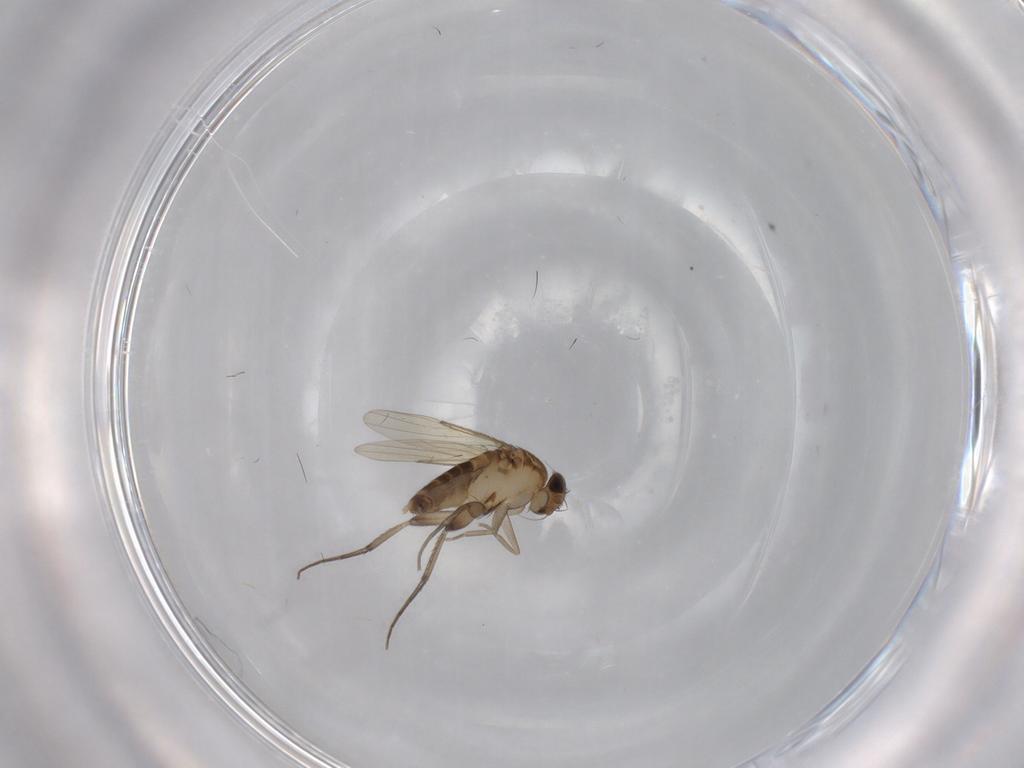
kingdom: Animalia
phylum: Arthropoda
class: Insecta
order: Diptera
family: Phoridae
